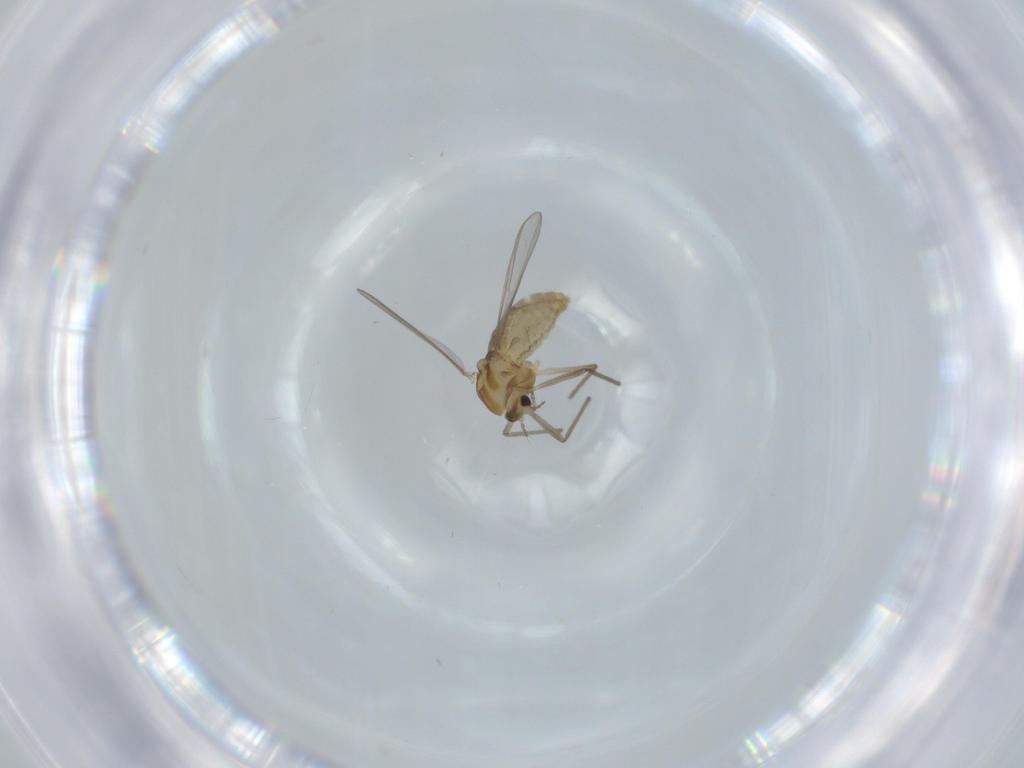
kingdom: Animalia
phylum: Arthropoda
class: Insecta
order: Diptera
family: Chironomidae
